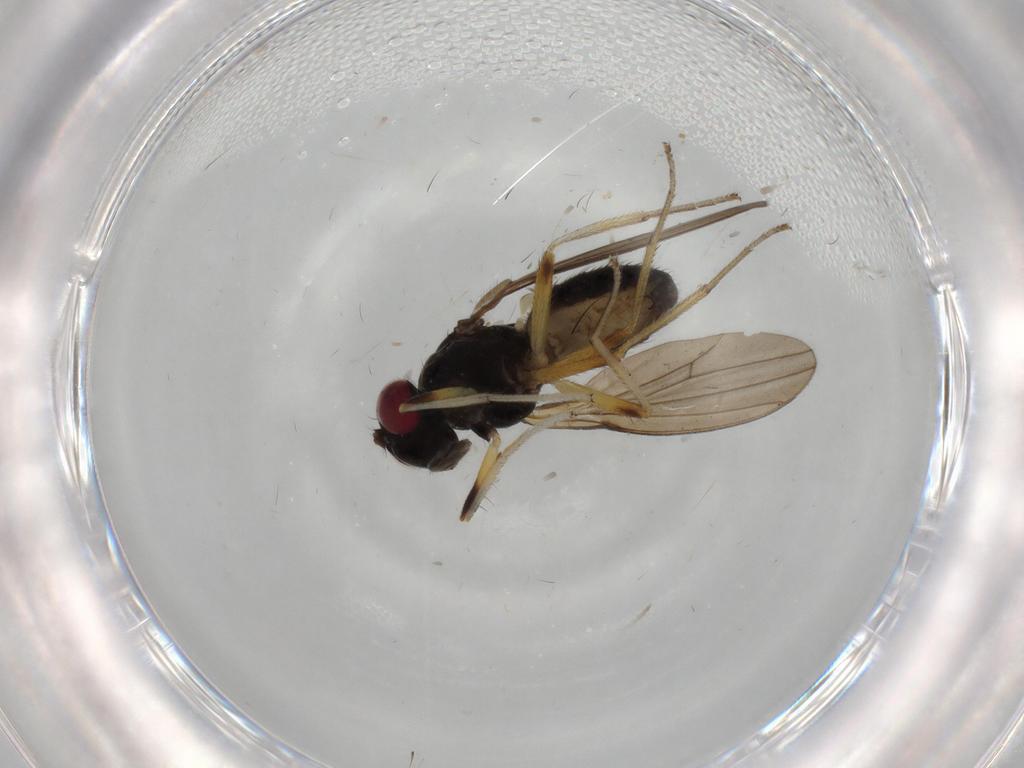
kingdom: Animalia
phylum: Arthropoda
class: Insecta
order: Diptera
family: Lauxaniidae
